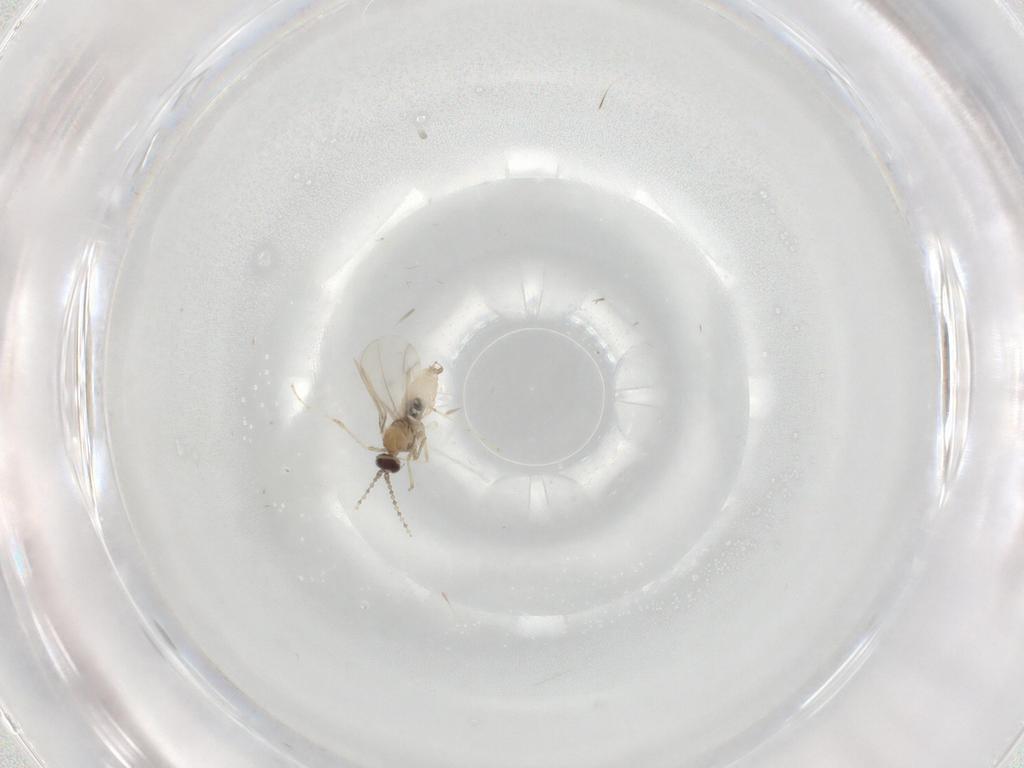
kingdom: Animalia
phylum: Arthropoda
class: Insecta
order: Diptera
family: Cecidomyiidae
